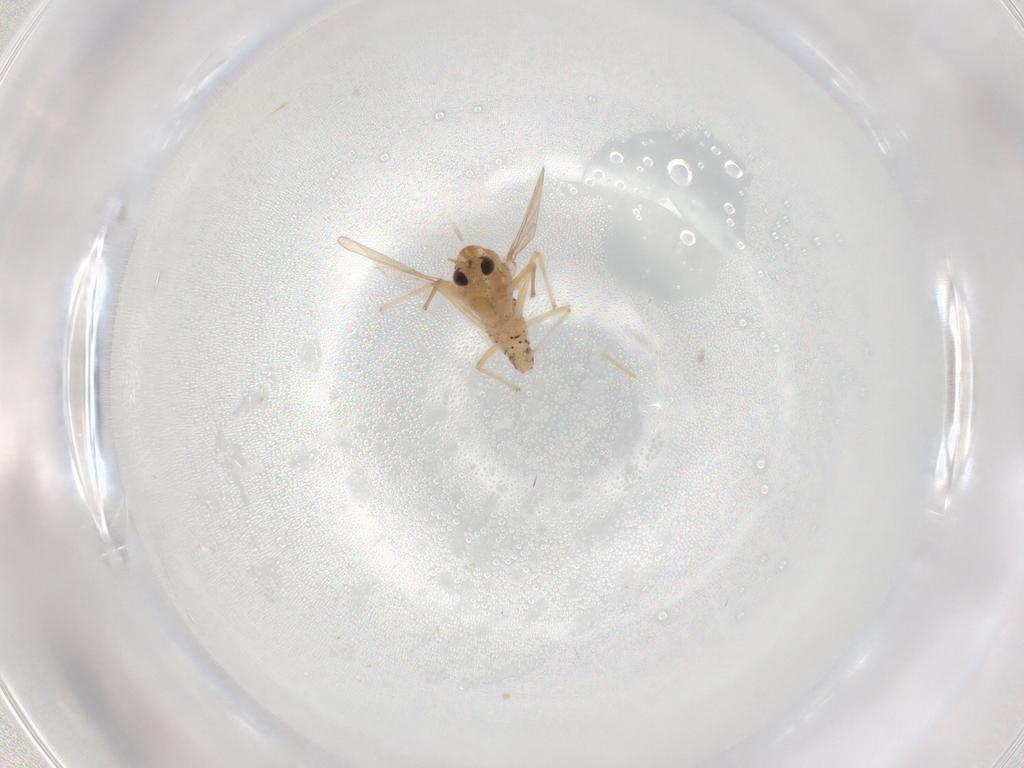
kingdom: Animalia
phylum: Arthropoda
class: Insecta
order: Diptera
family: Chironomidae
